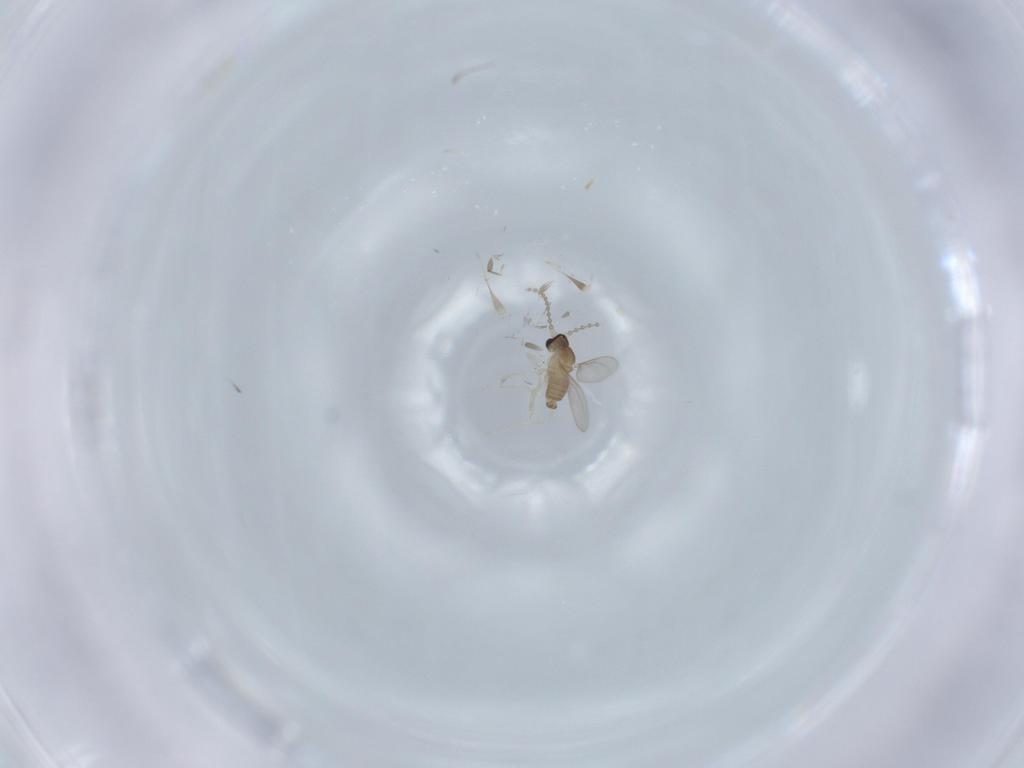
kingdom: Animalia
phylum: Arthropoda
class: Insecta
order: Diptera
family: Cecidomyiidae
